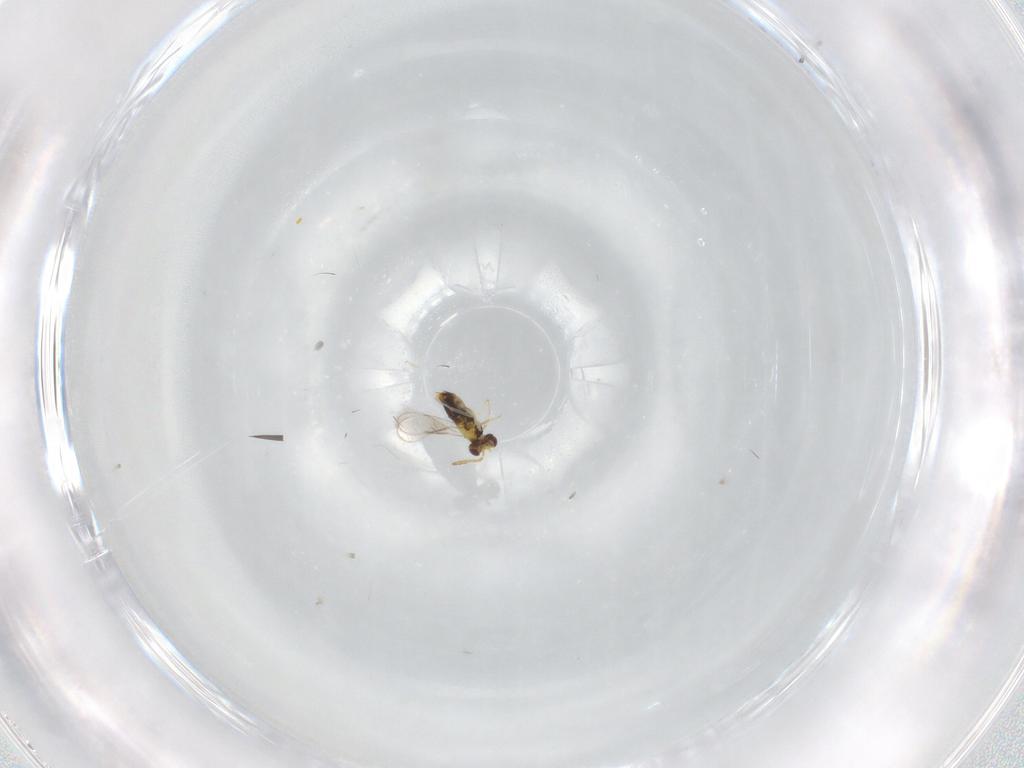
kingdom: Animalia
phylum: Arthropoda
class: Insecta
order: Hymenoptera
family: Aphelinidae
